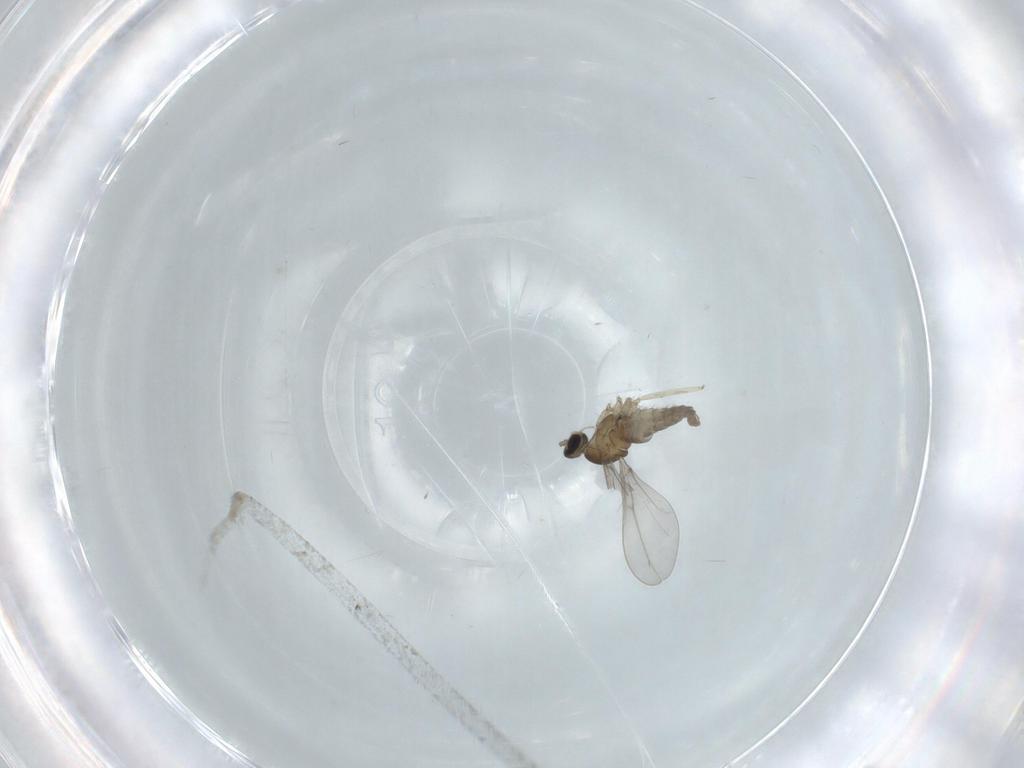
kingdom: Animalia
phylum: Arthropoda
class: Insecta
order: Diptera
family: Cecidomyiidae
